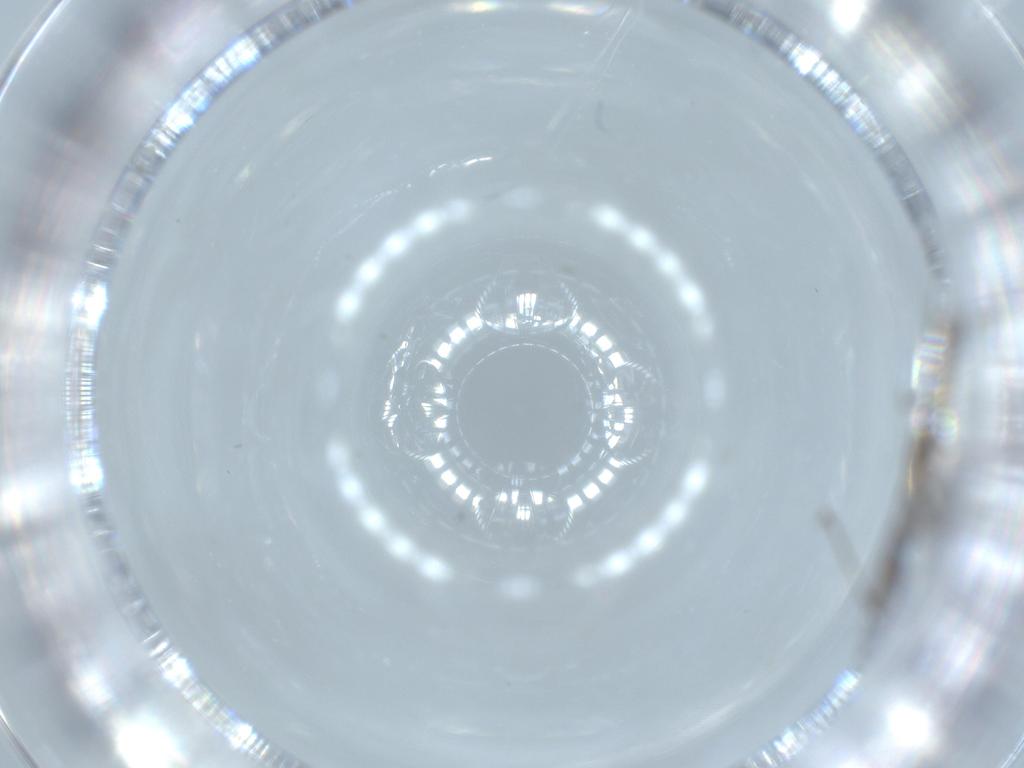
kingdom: Animalia
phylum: Arthropoda
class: Insecta
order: Diptera
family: Cecidomyiidae
